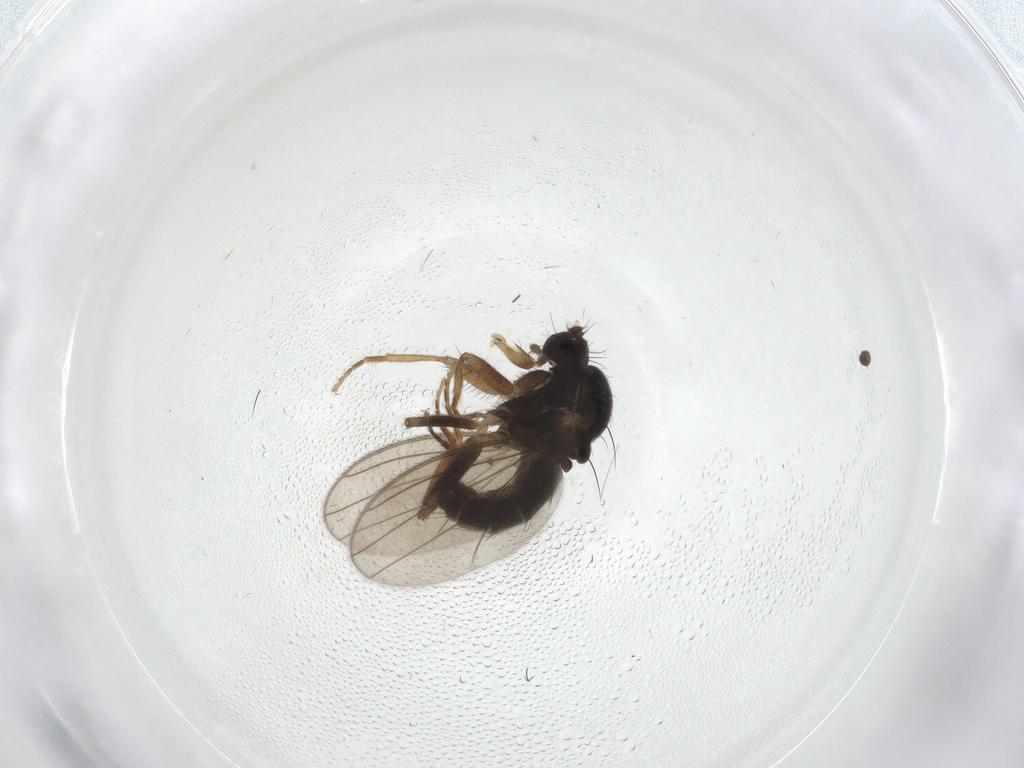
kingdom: Animalia
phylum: Arthropoda
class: Insecta
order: Diptera
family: Inbiomyiidae
